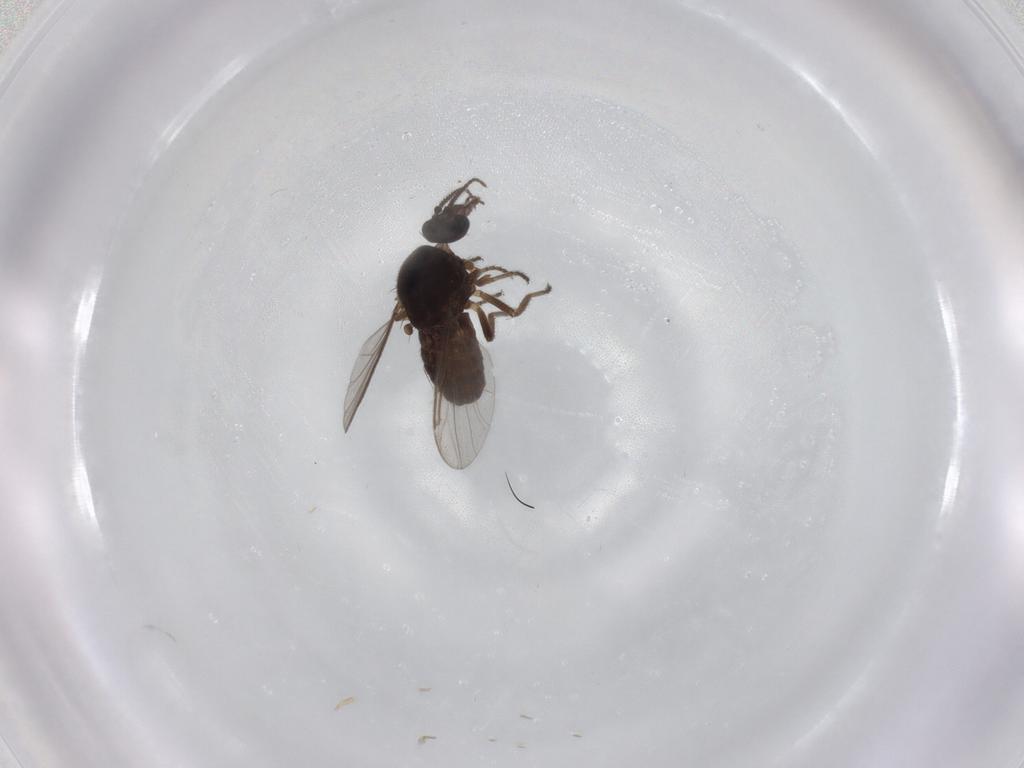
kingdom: Animalia
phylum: Arthropoda
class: Insecta
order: Diptera
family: Ceratopogonidae
